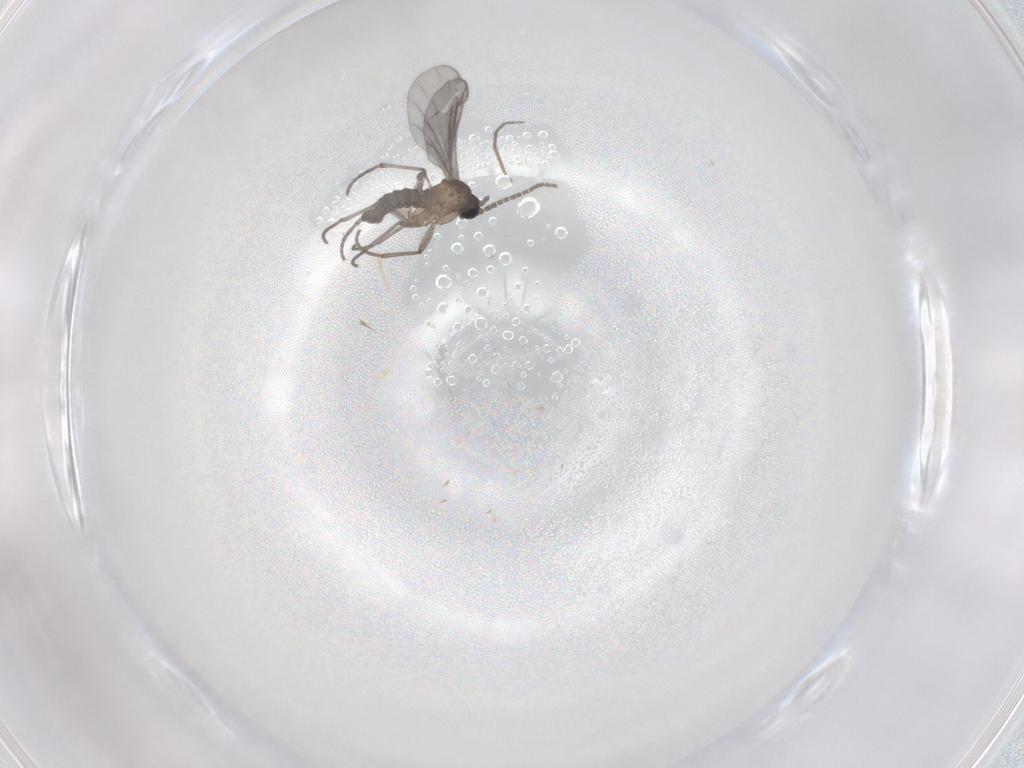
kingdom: Animalia
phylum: Arthropoda
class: Insecta
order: Diptera
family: Sciaridae
